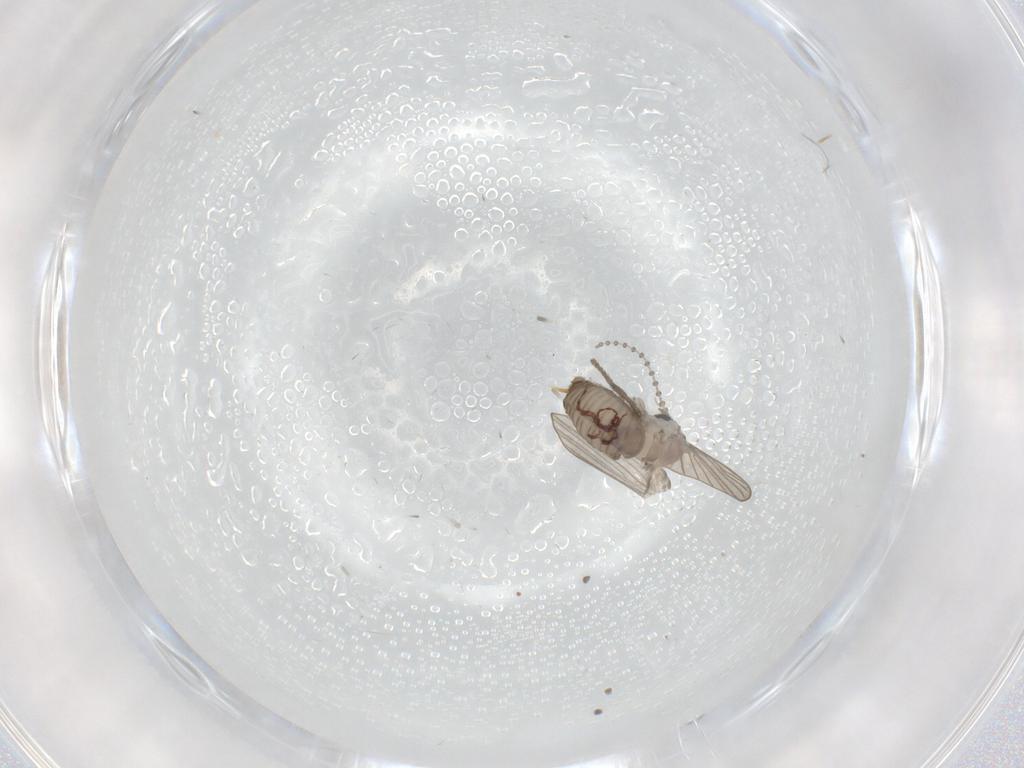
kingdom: Animalia
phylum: Arthropoda
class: Insecta
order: Diptera
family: Psychodidae
